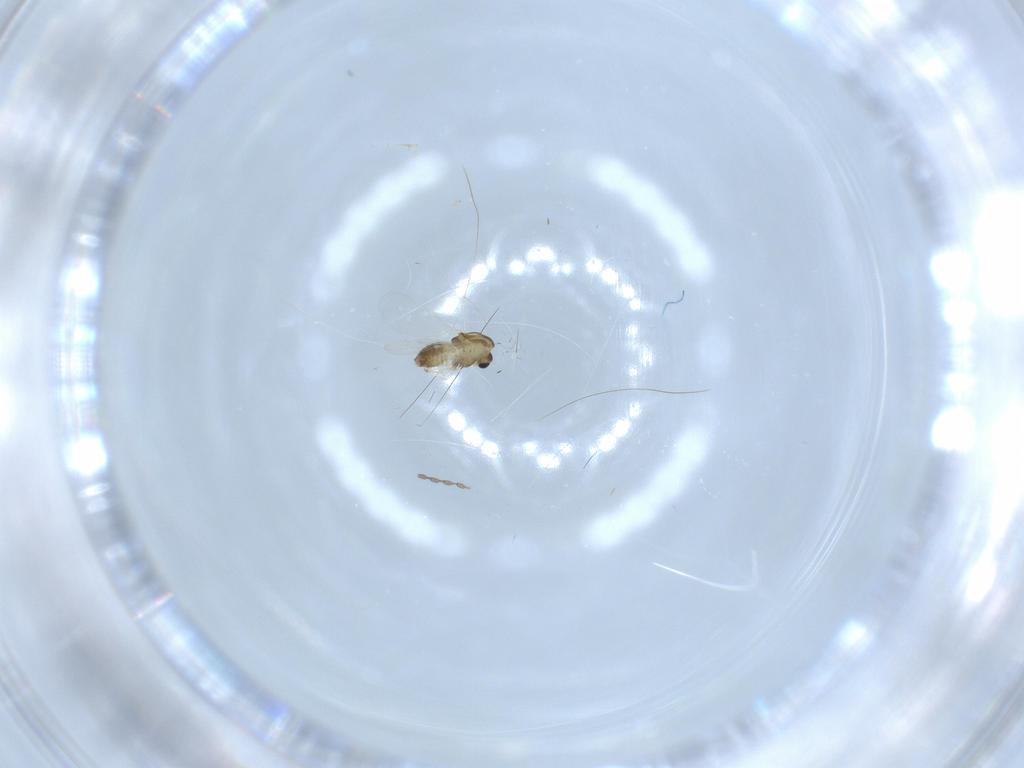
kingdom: Animalia
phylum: Arthropoda
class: Insecta
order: Diptera
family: Chironomidae
